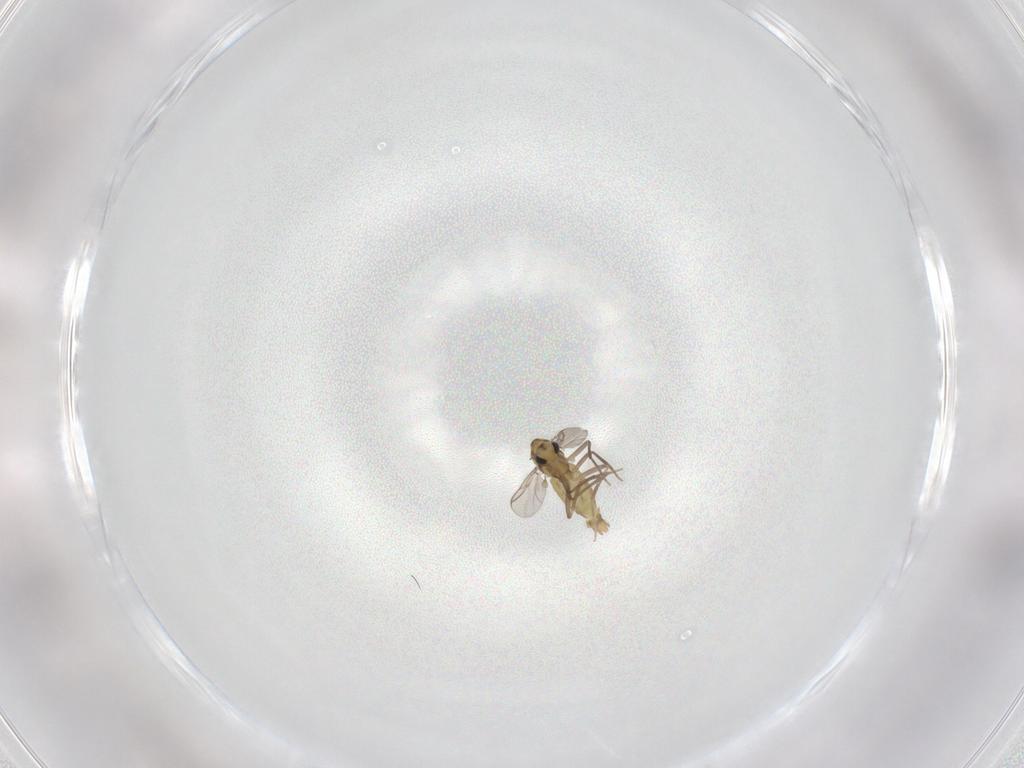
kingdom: Animalia
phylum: Arthropoda
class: Insecta
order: Diptera
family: Chironomidae
